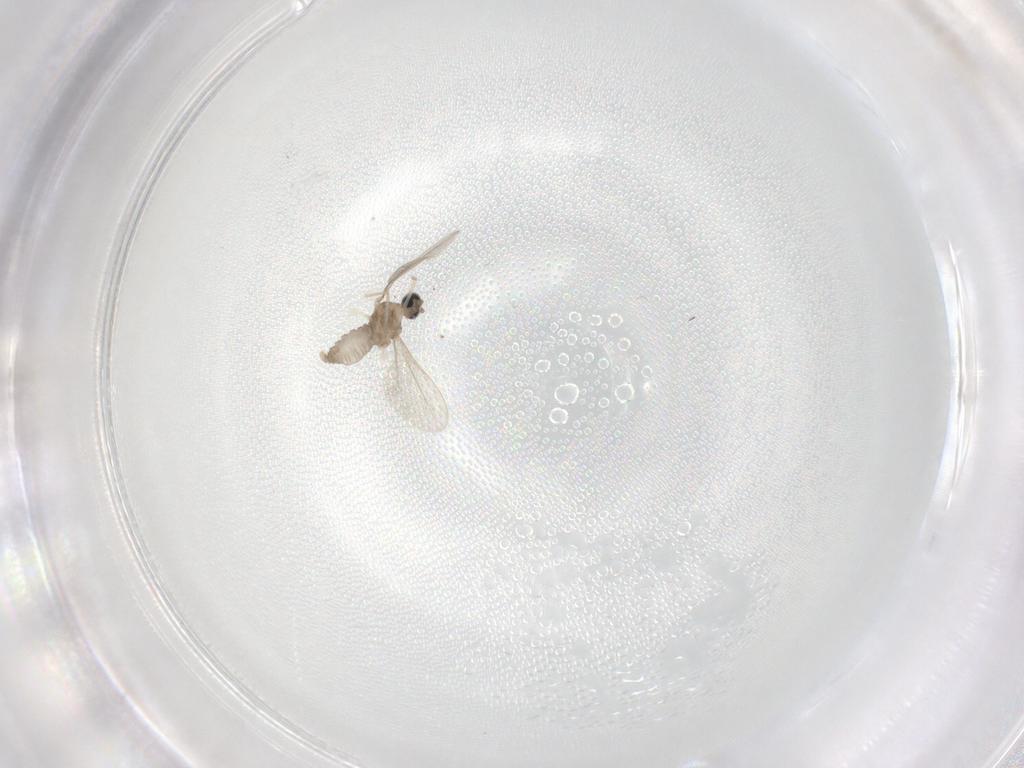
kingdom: Animalia
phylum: Arthropoda
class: Insecta
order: Diptera
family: Cecidomyiidae
